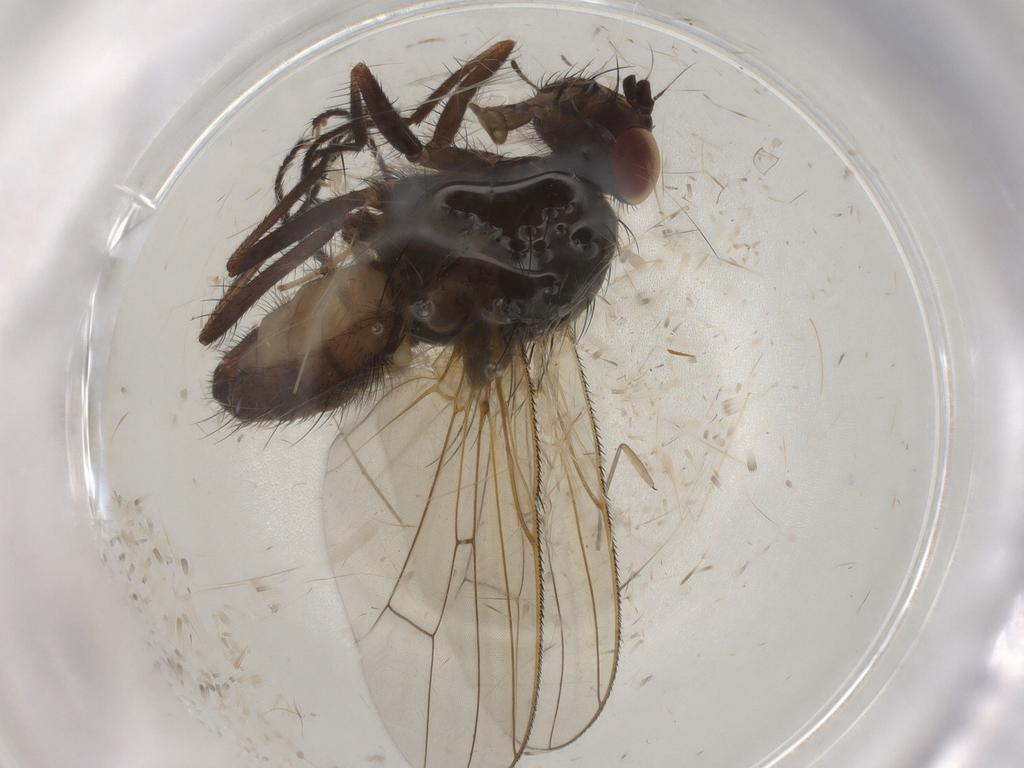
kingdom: Animalia
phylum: Arthropoda
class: Insecta
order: Diptera
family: Anthomyiidae
